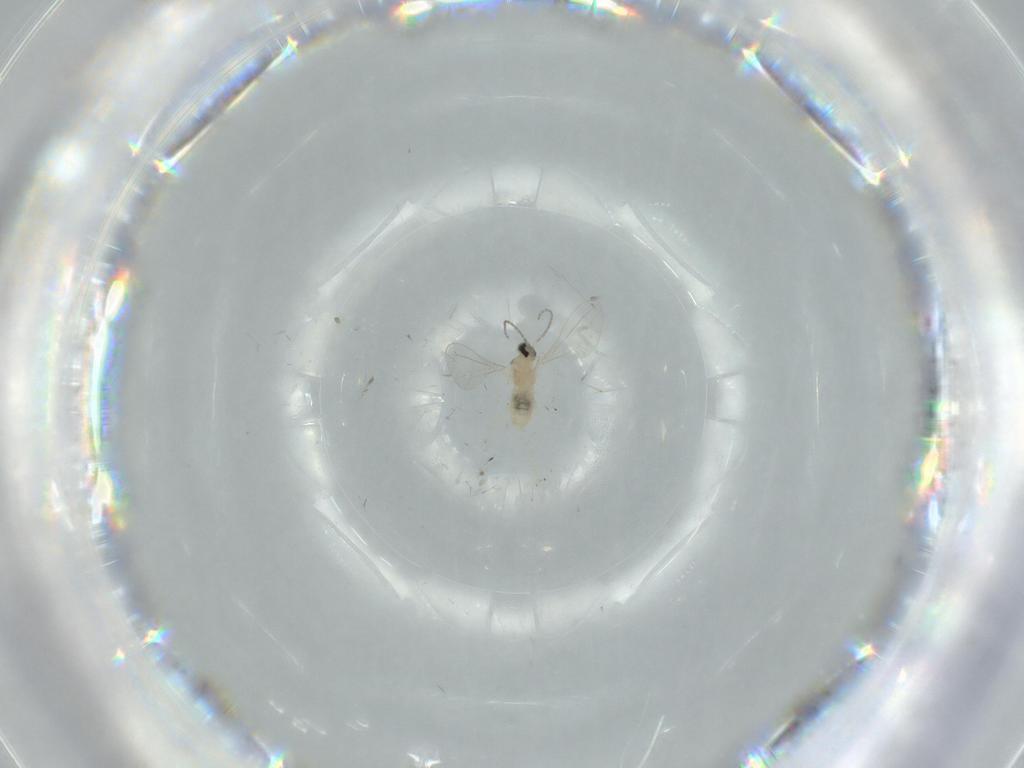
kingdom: Animalia
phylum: Arthropoda
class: Insecta
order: Diptera
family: Cecidomyiidae
